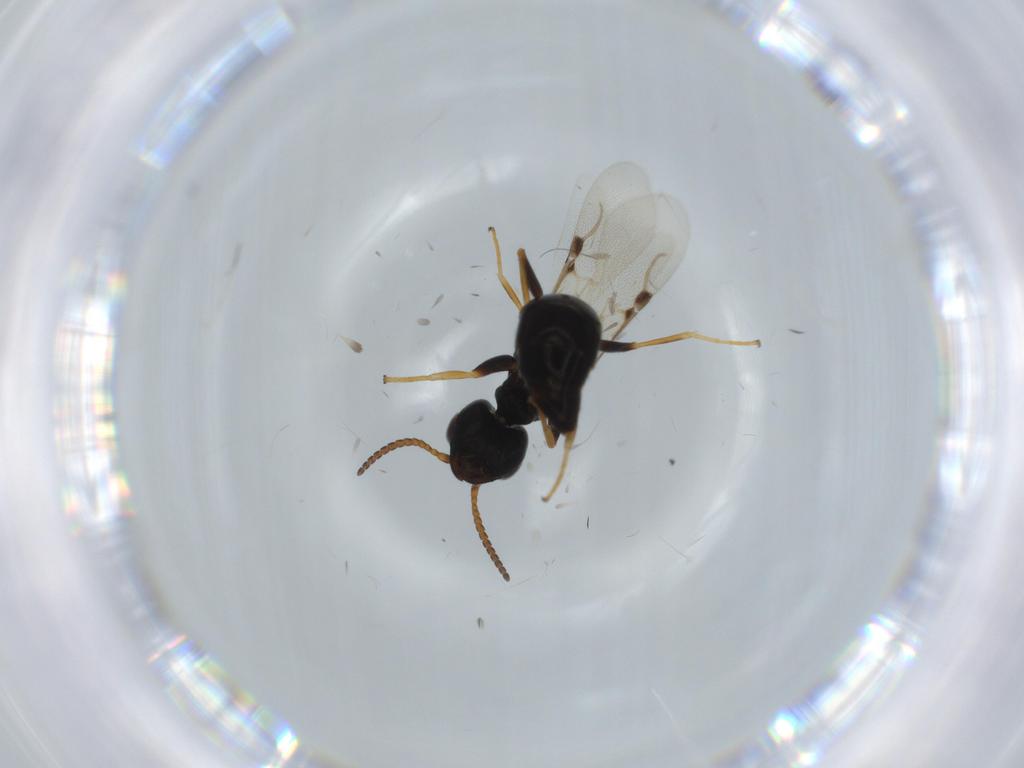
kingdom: Animalia
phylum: Arthropoda
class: Insecta
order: Hymenoptera
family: Bethylidae
